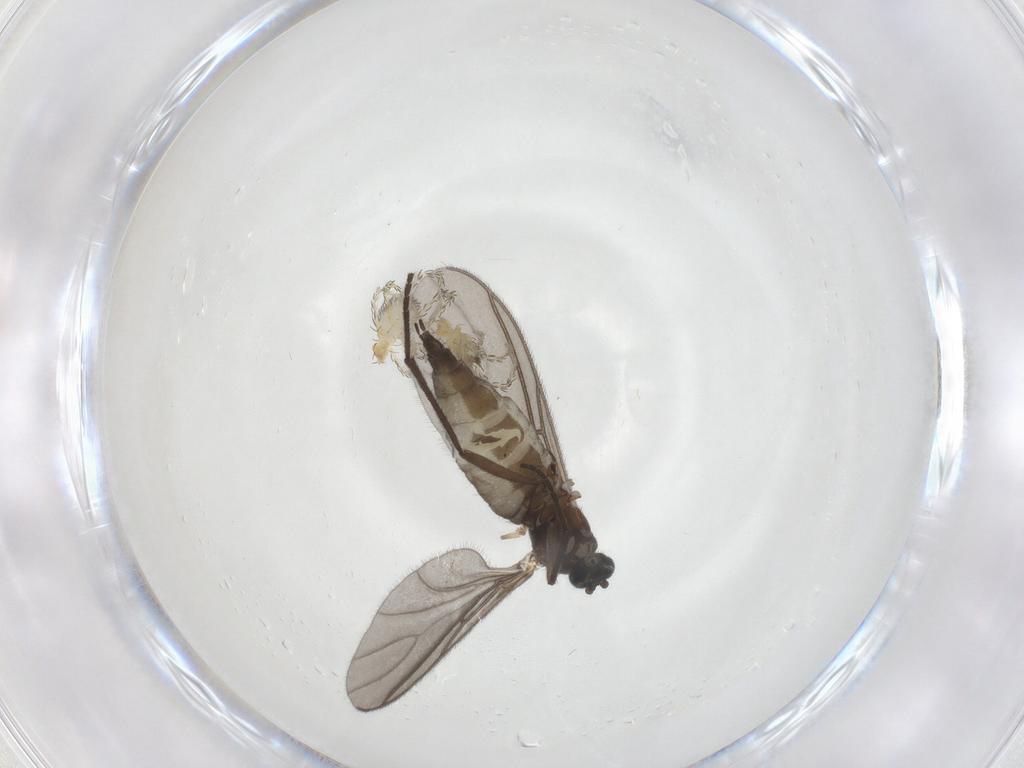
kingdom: Animalia
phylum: Arthropoda
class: Insecta
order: Diptera
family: Sciaridae
